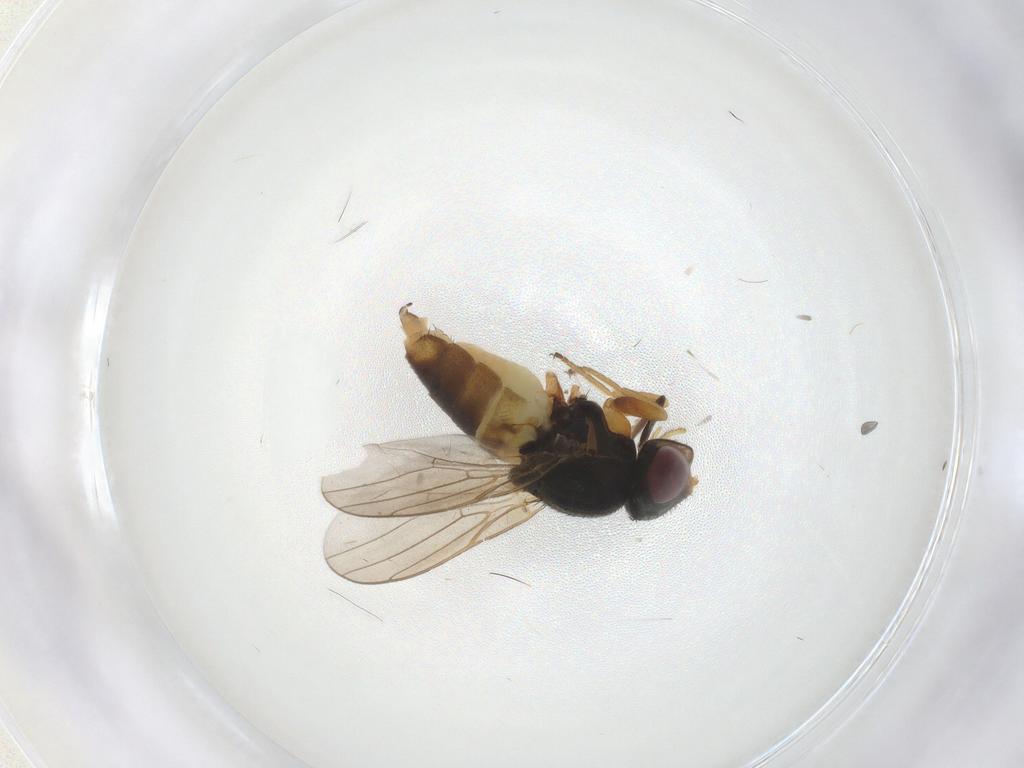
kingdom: Animalia
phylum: Arthropoda
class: Insecta
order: Diptera
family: Chloropidae
